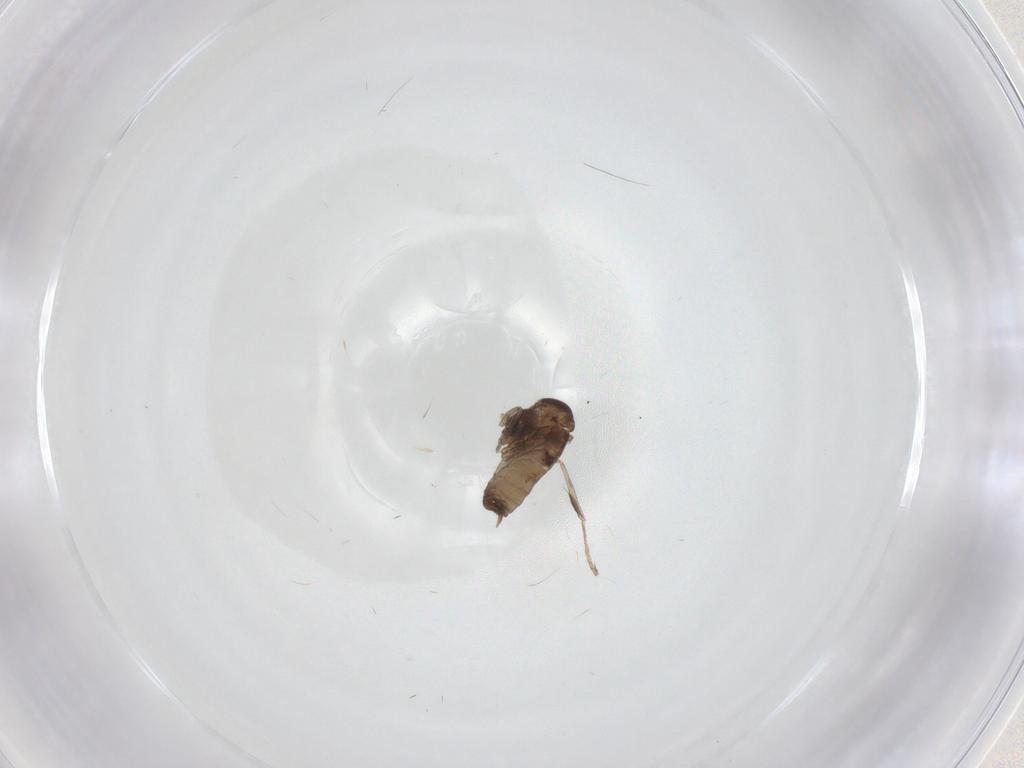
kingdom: Animalia
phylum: Arthropoda
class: Insecta
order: Diptera
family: Psychodidae
